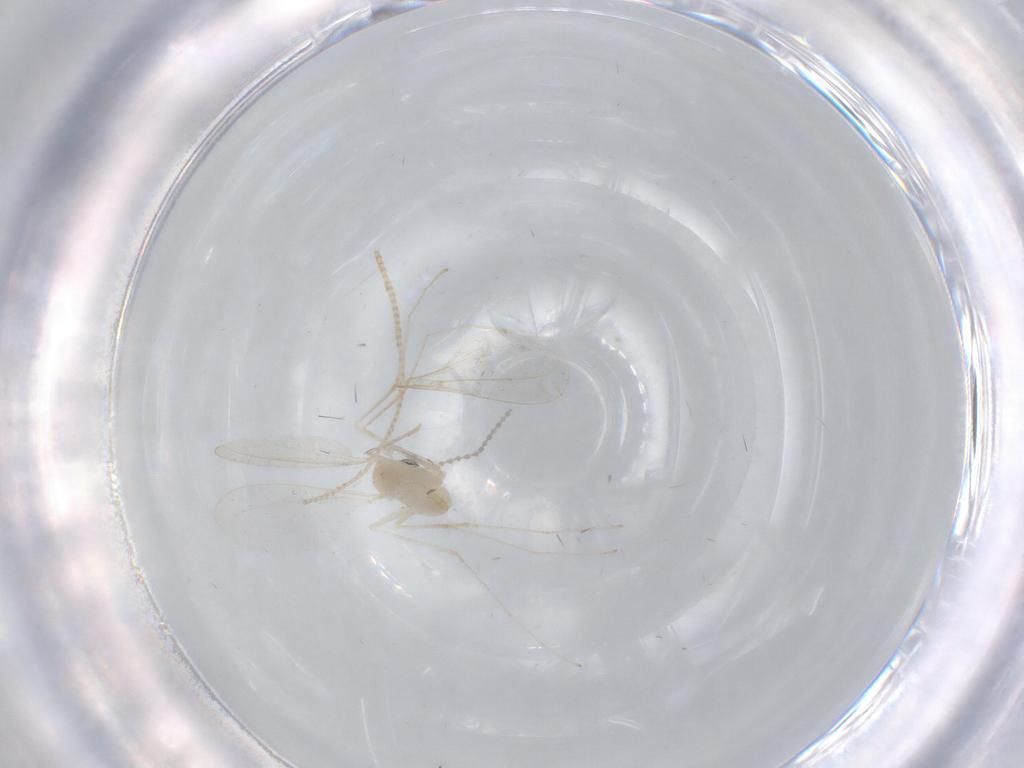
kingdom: Animalia
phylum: Arthropoda
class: Insecta
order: Diptera
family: Cecidomyiidae
